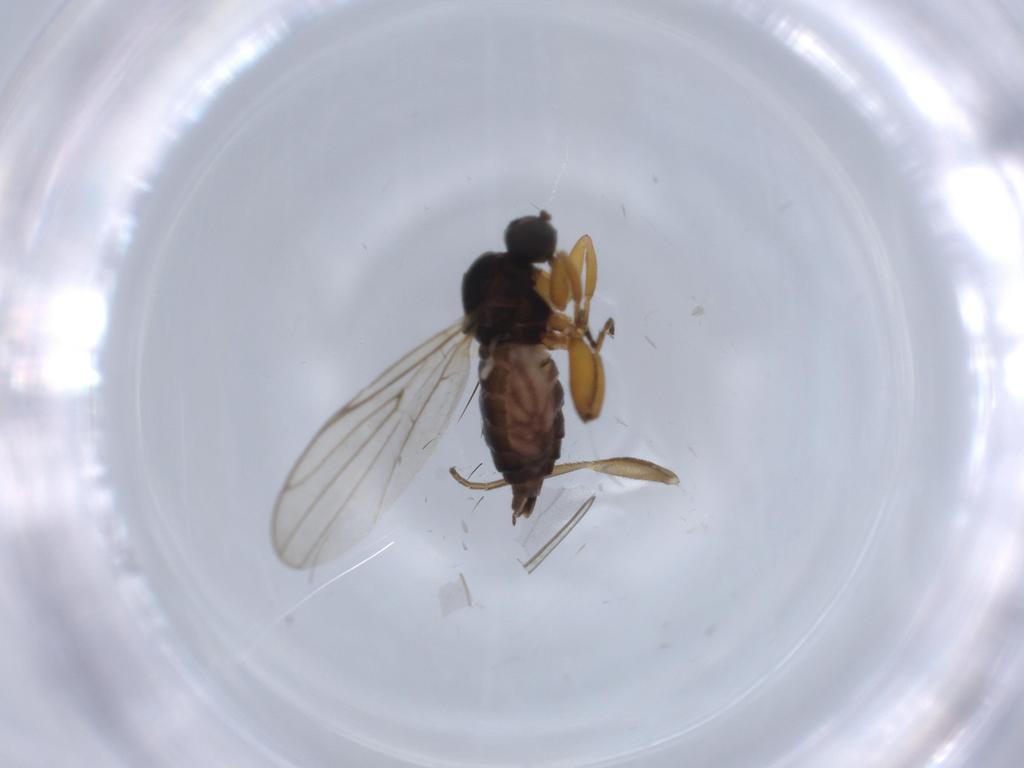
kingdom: Animalia
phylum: Arthropoda
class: Insecta
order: Diptera
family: Hybotidae
